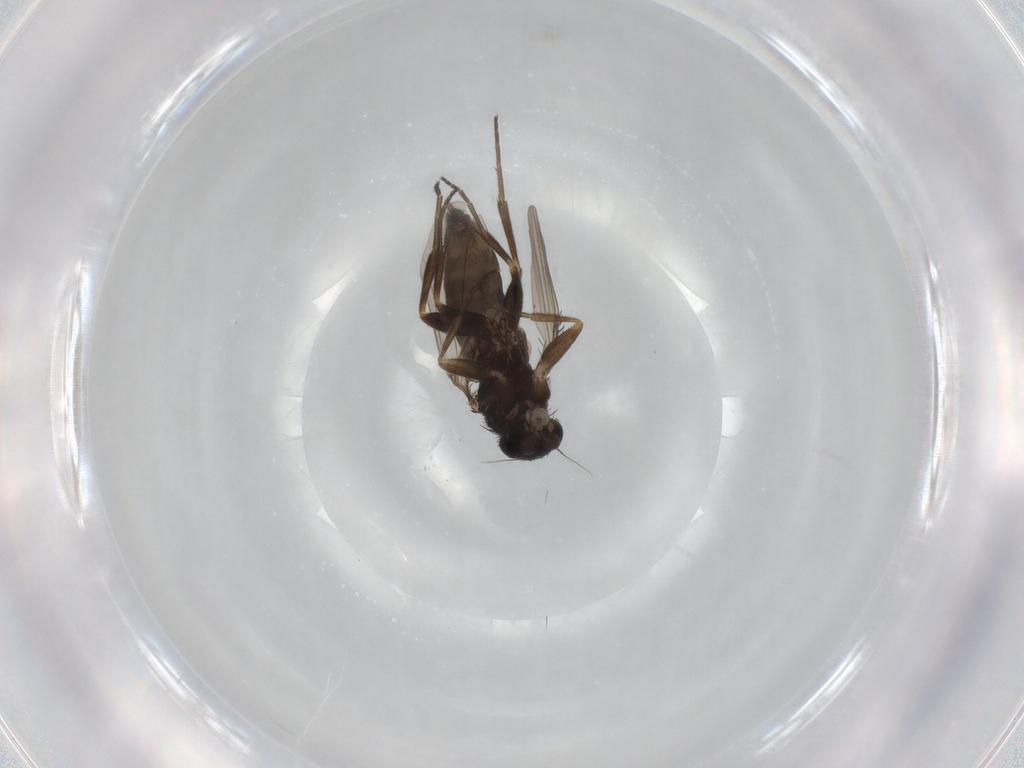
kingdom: Animalia
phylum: Arthropoda
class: Insecta
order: Diptera
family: Phoridae
